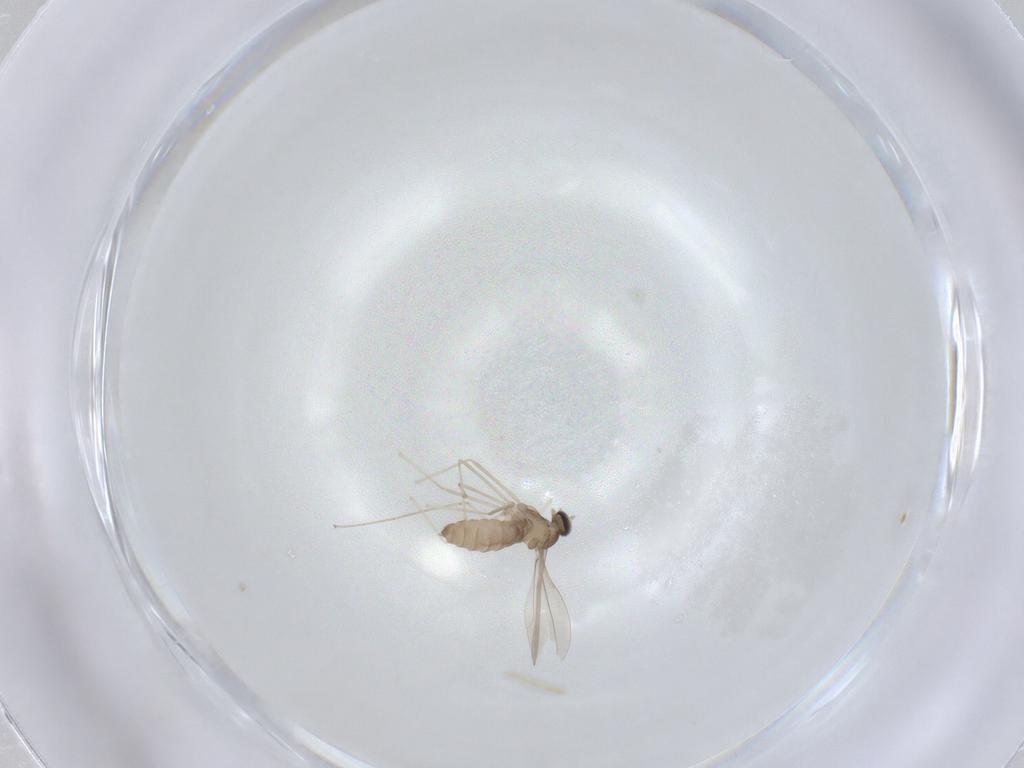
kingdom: Animalia
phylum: Arthropoda
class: Insecta
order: Diptera
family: Cecidomyiidae
